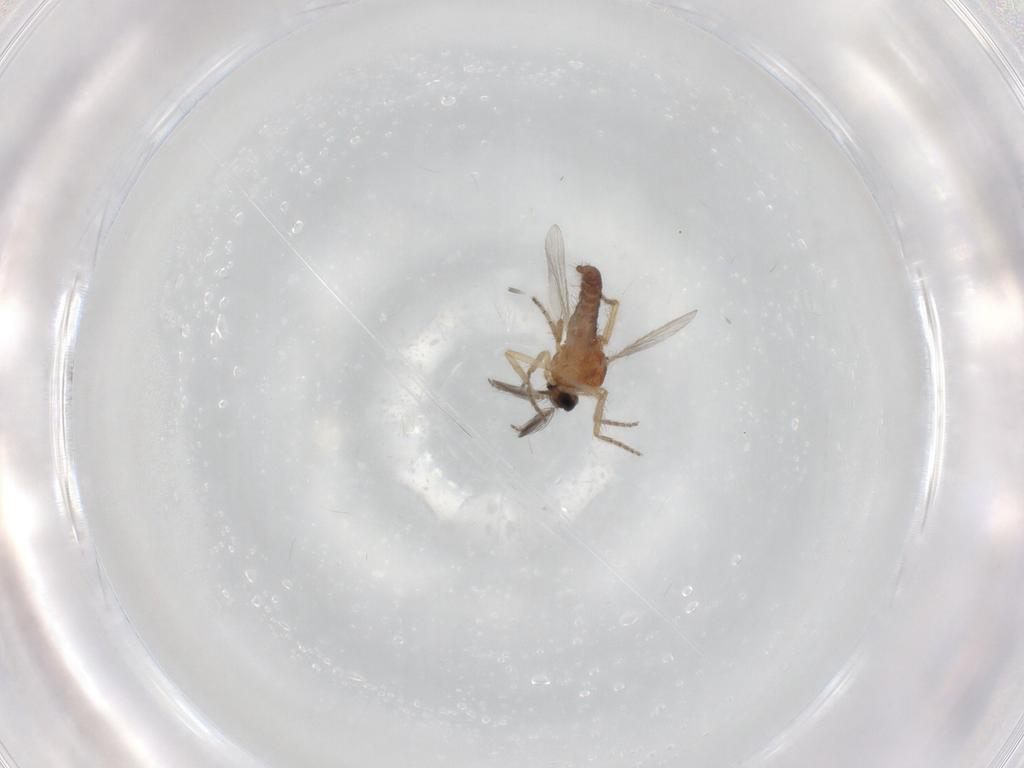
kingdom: Animalia
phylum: Arthropoda
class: Insecta
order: Diptera
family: Ceratopogonidae
